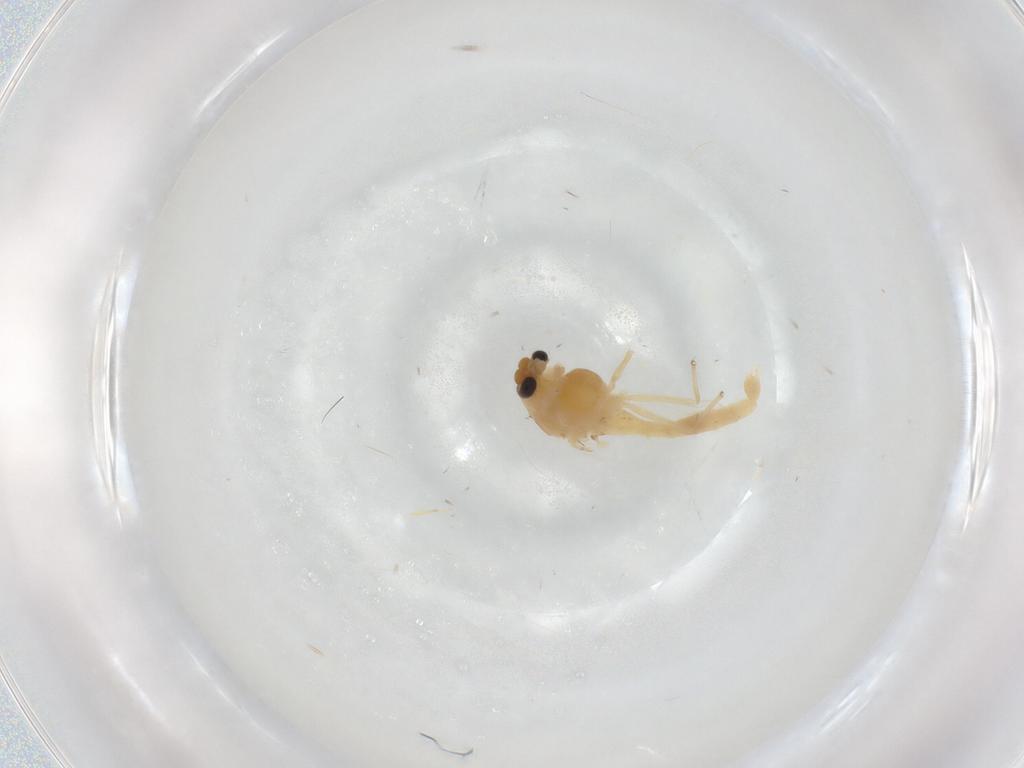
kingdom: Animalia
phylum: Arthropoda
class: Insecta
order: Diptera
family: Chironomidae
